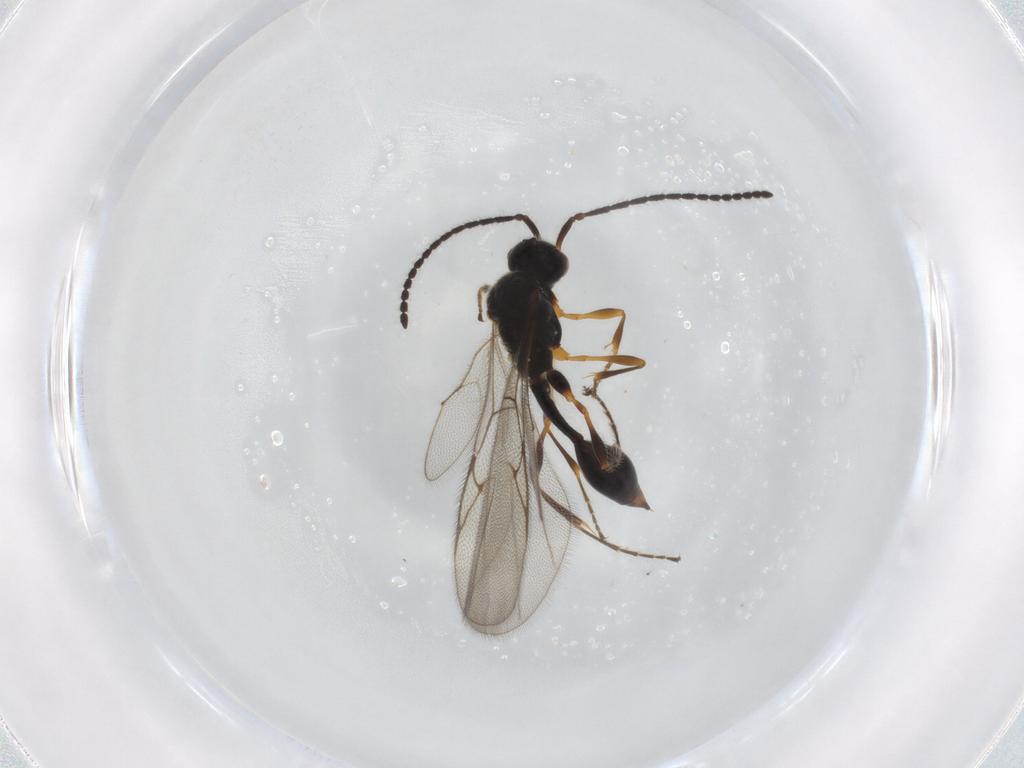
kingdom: Animalia
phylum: Arthropoda
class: Insecta
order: Hymenoptera
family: Diapriidae
